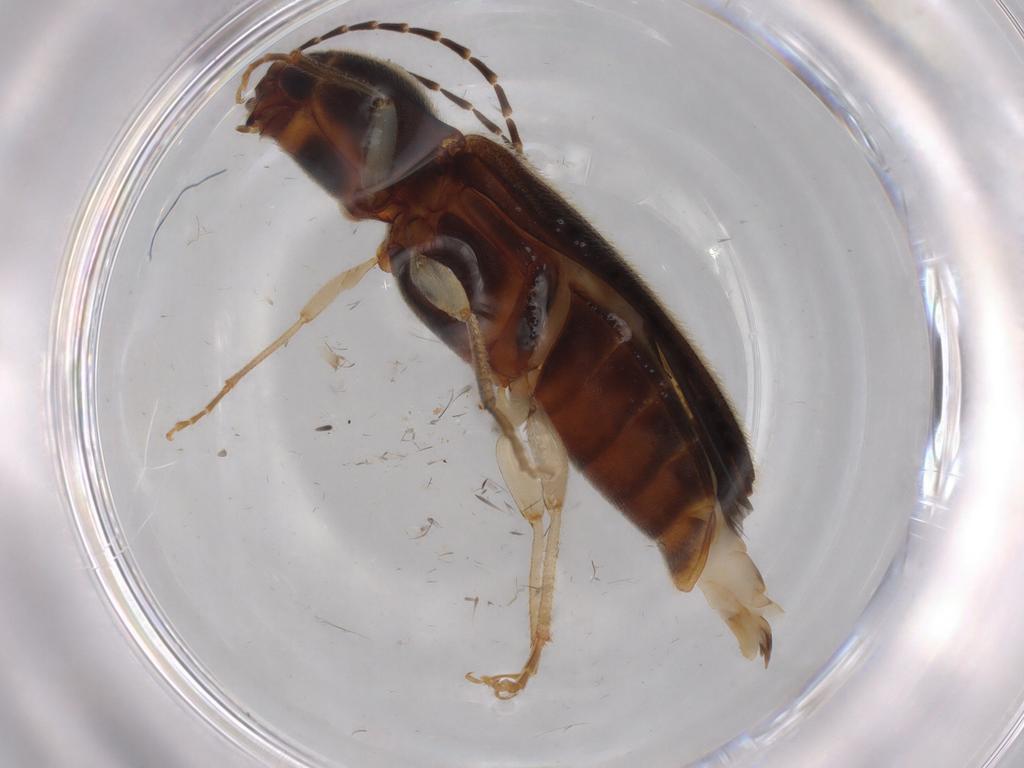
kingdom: Animalia
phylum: Arthropoda
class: Insecta
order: Coleoptera
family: Elateridae
